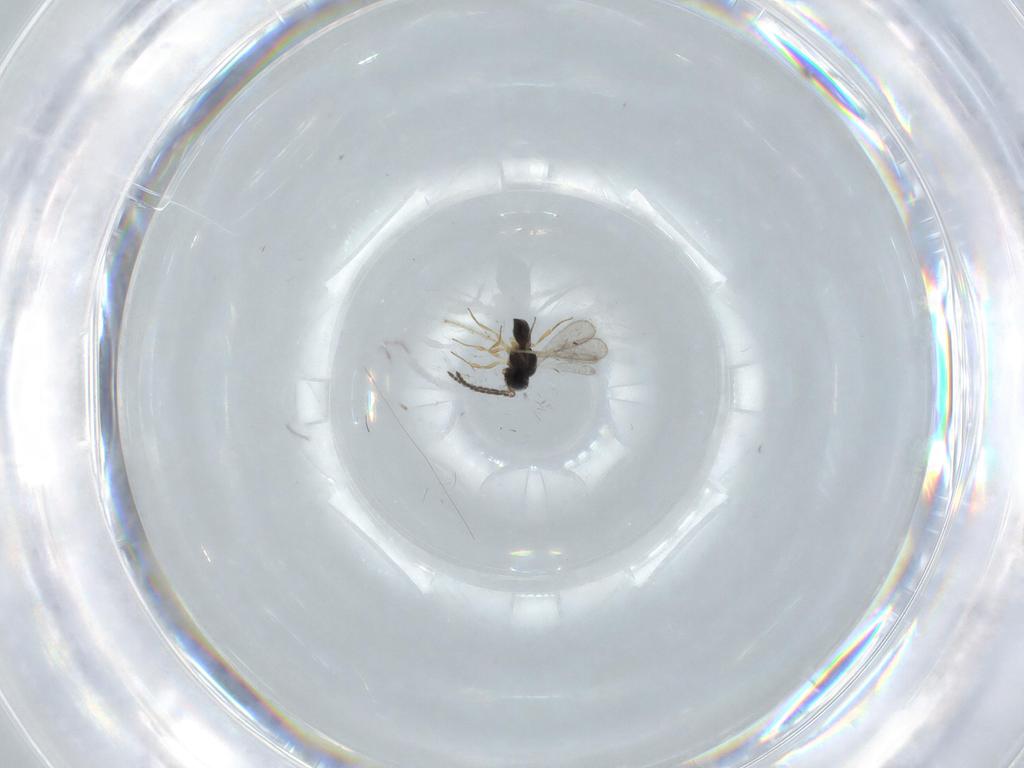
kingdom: Animalia
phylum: Arthropoda
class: Insecta
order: Hymenoptera
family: Scelionidae
